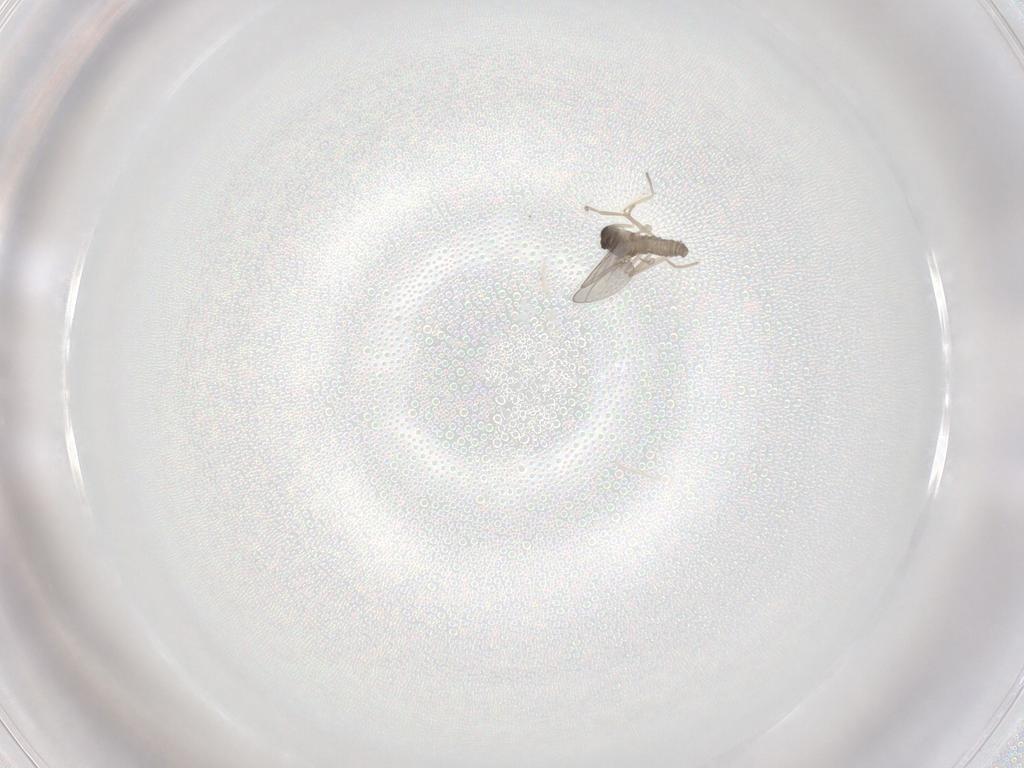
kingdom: Animalia
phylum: Arthropoda
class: Insecta
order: Diptera
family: Cecidomyiidae
